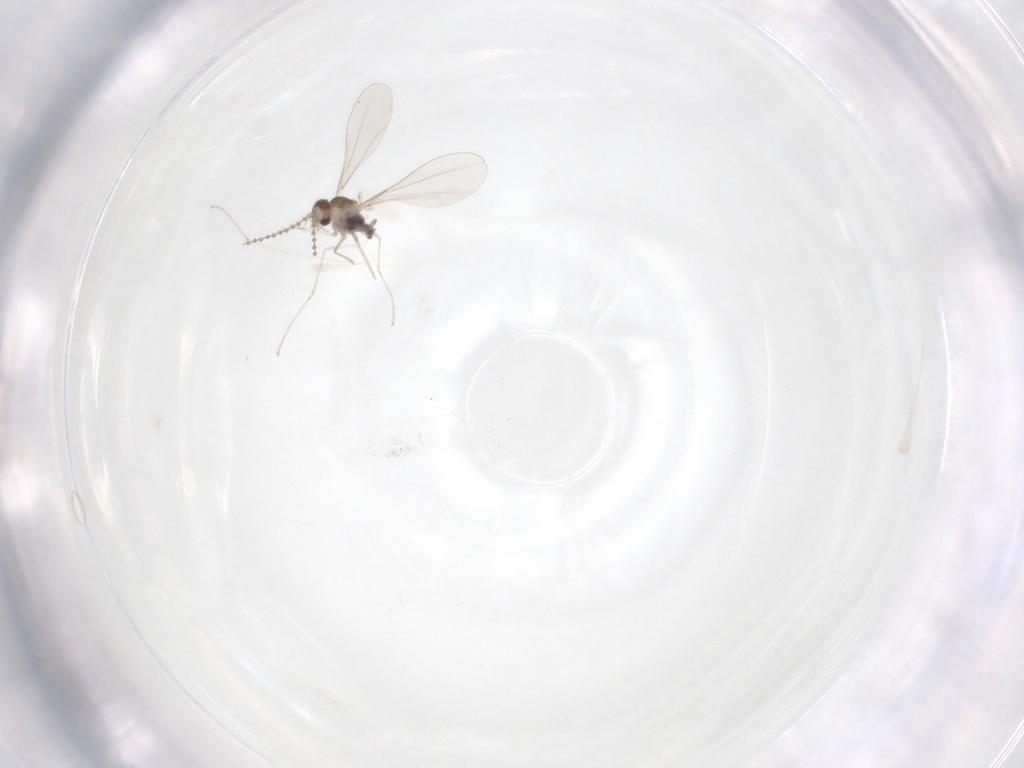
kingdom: Animalia
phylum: Arthropoda
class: Insecta
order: Diptera
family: Cecidomyiidae
